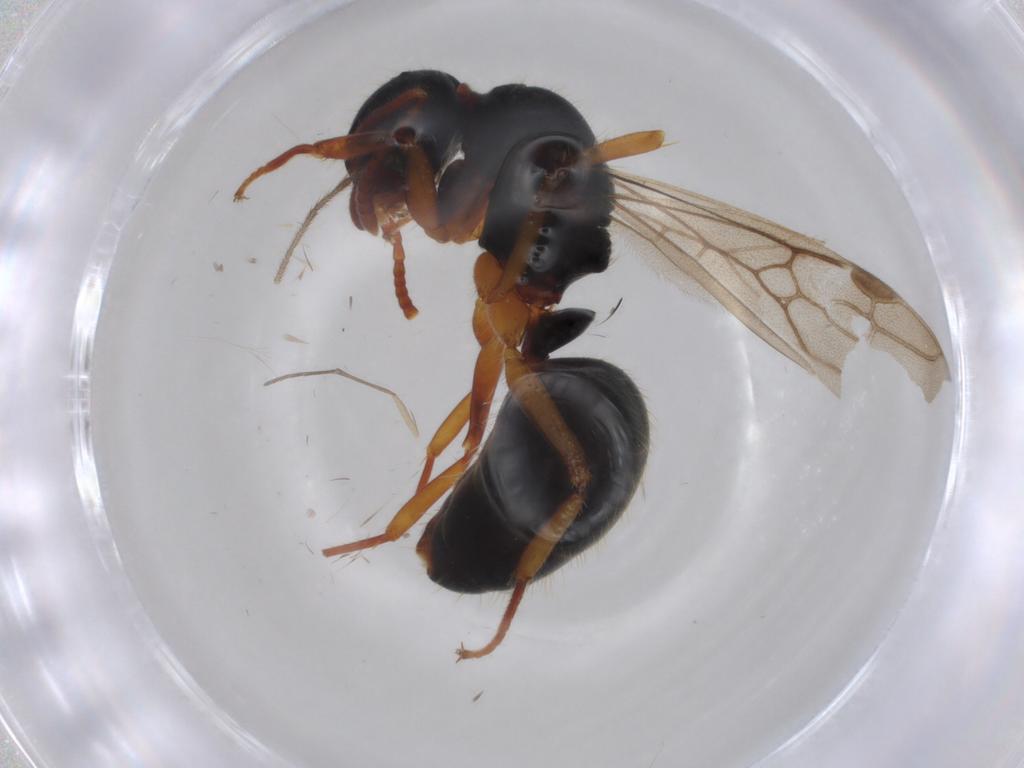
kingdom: Animalia
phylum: Arthropoda
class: Insecta
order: Hymenoptera
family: Formicidae
